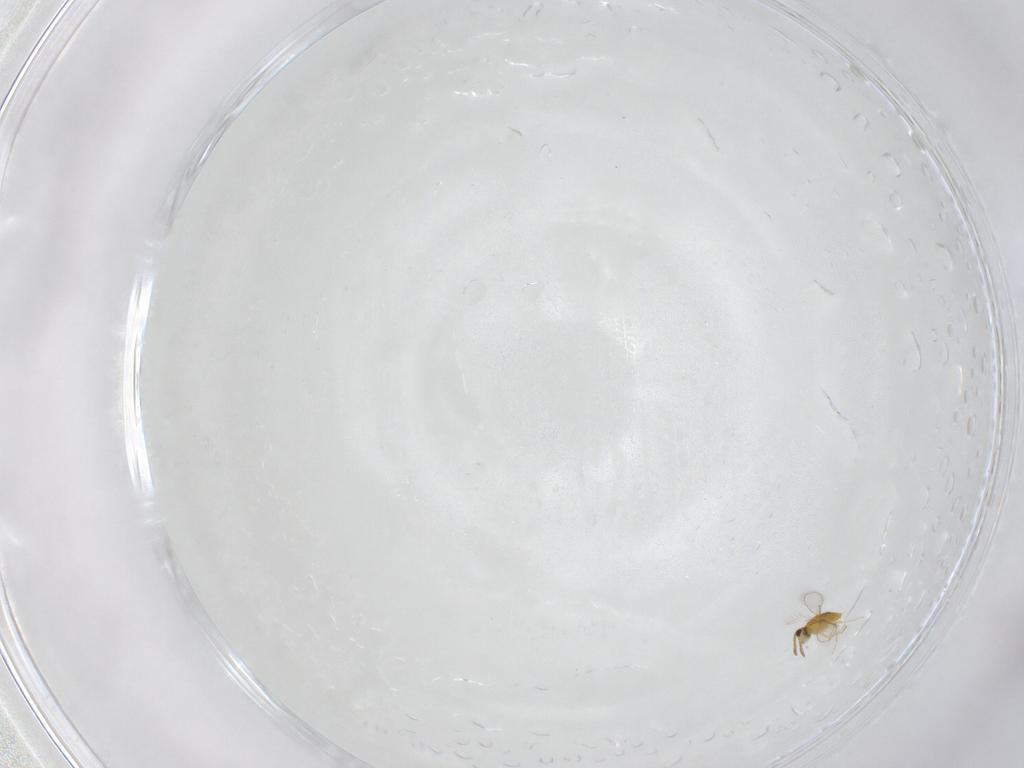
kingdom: Animalia
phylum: Arthropoda
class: Insecta
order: Hymenoptera
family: Aphelinidae
